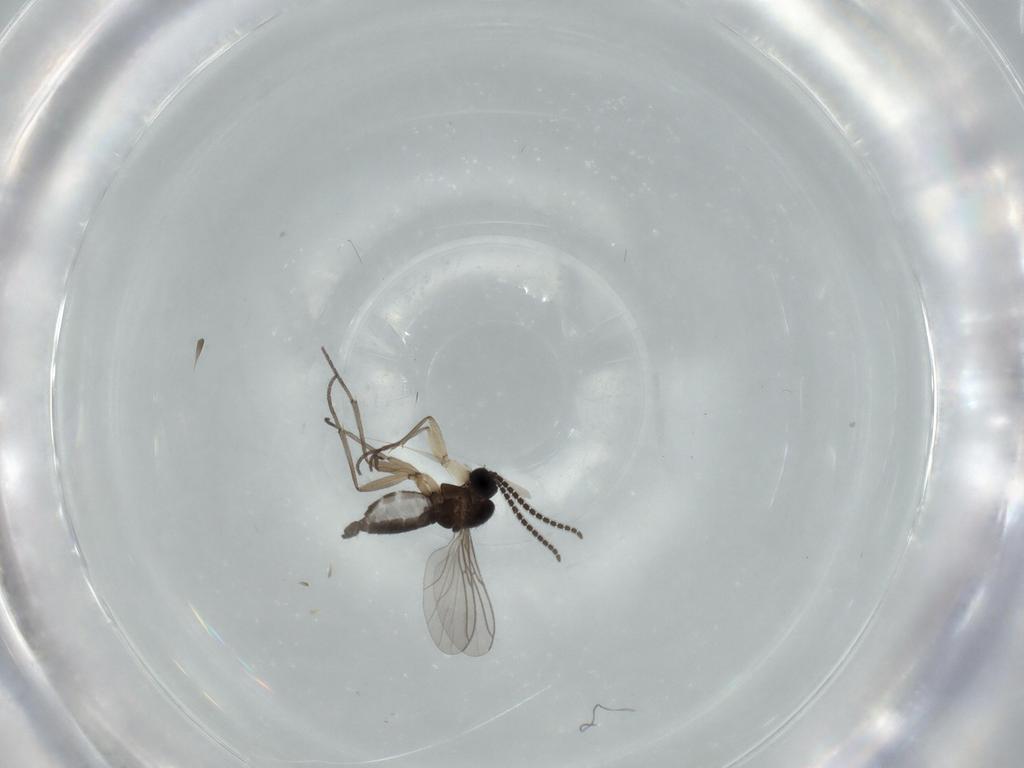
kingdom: Animalia
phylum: Arthropoda
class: Insecta
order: Diptera
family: Sciaridae
